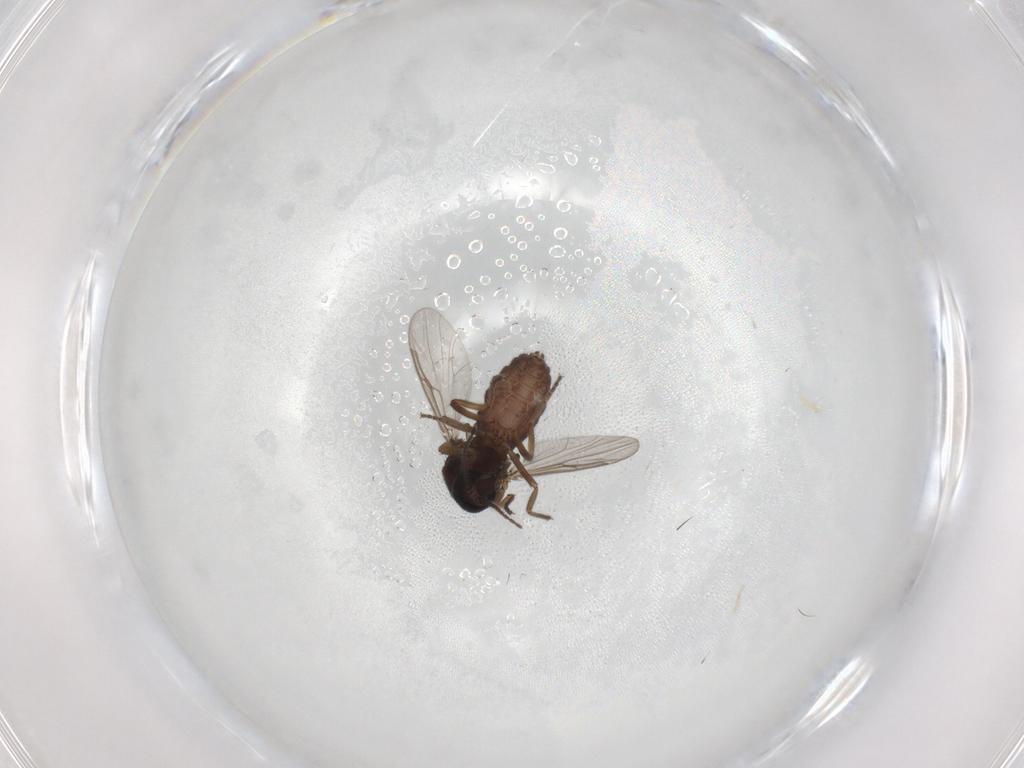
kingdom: Animalia
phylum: Arthropoda
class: Insecta
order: Diptera
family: Ceratopogonidae
